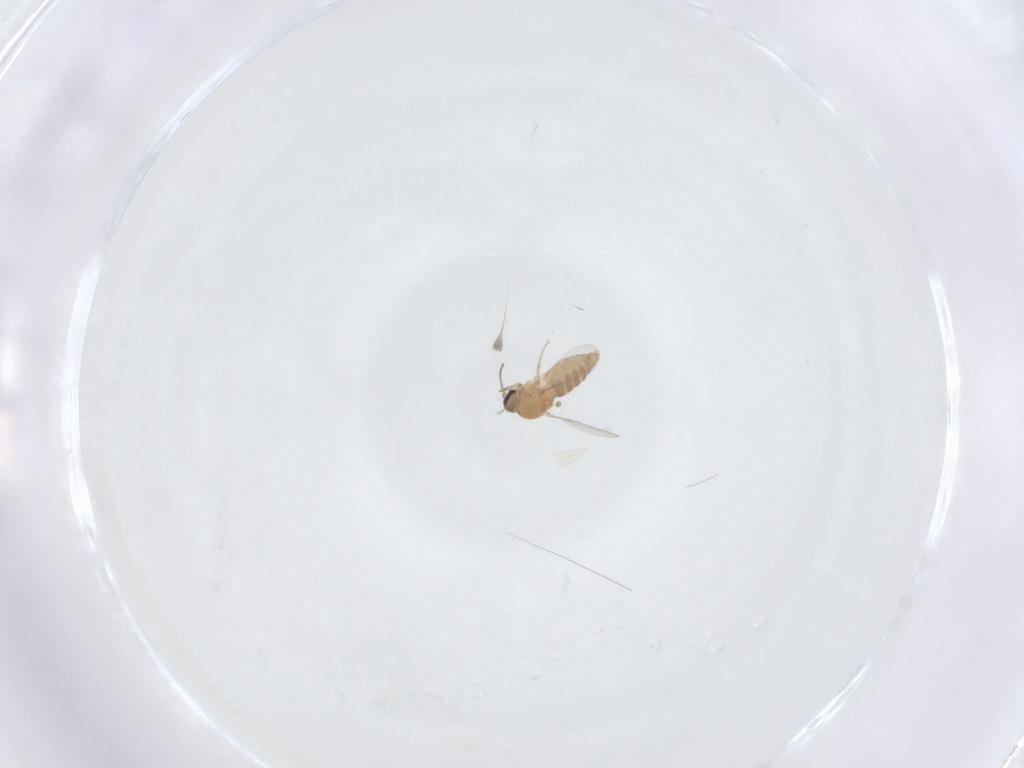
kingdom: Animalia
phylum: Arthropoda
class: Insecta
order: Diptera
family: Ceratopogonidae
